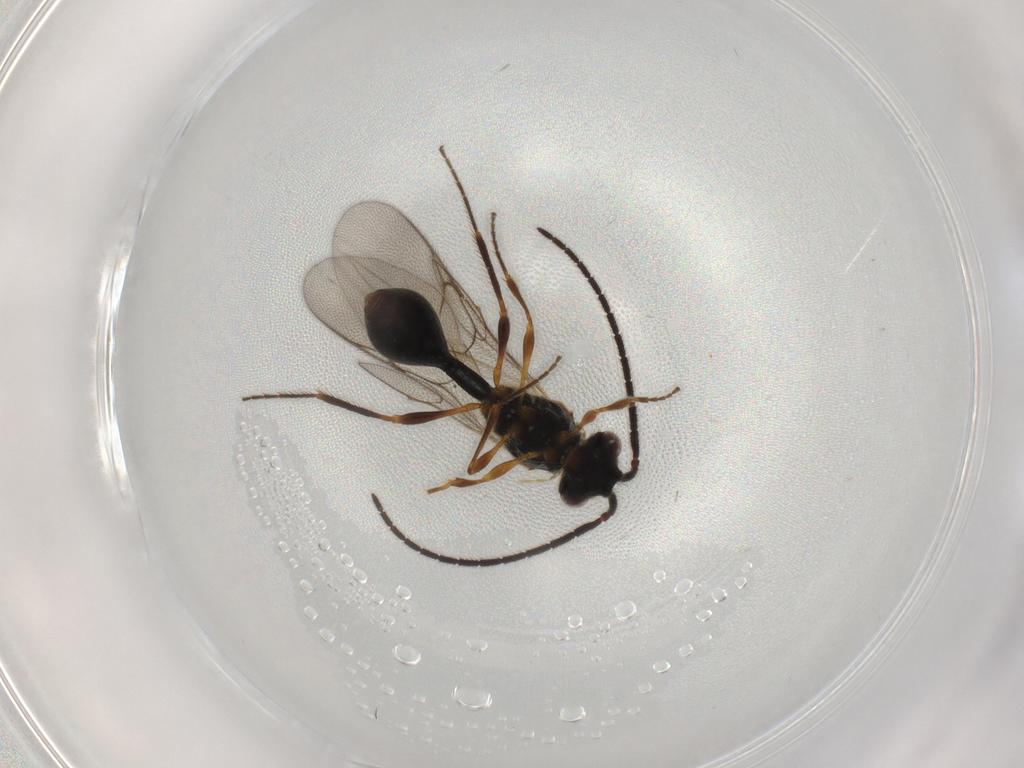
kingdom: Animalia
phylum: Arthropoda
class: Insecta
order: Hymenoptera
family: Diapriidae
